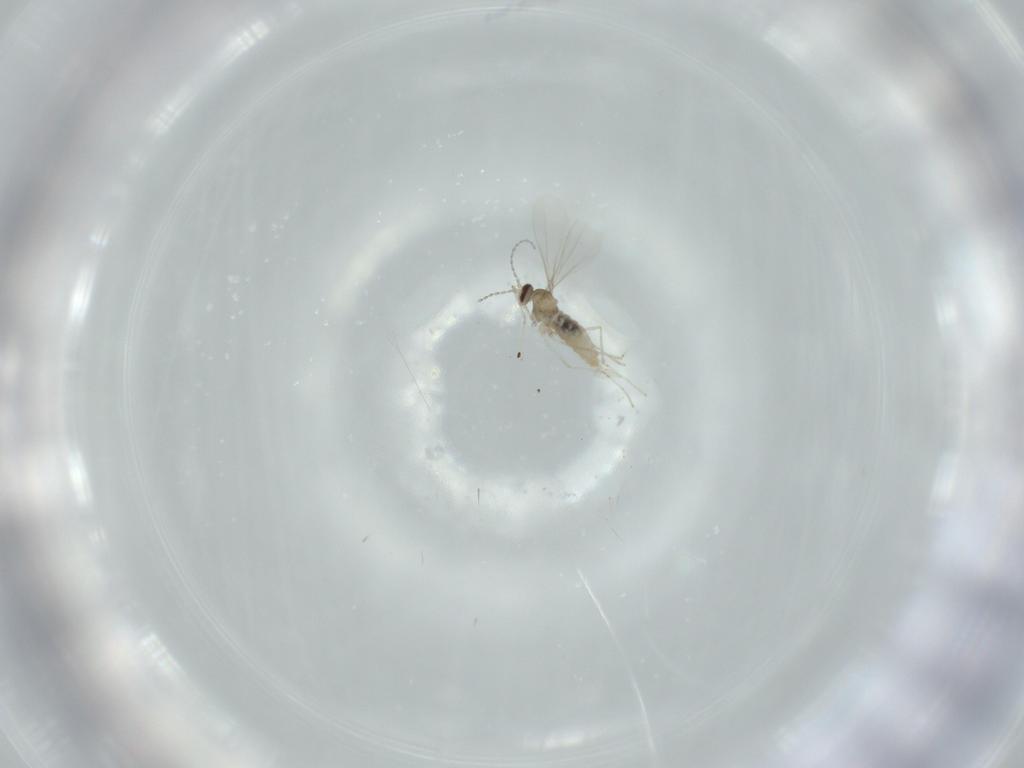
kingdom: Animalia
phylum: Arthropoda
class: Insecta
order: Diptera
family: Cecidomyiidae
